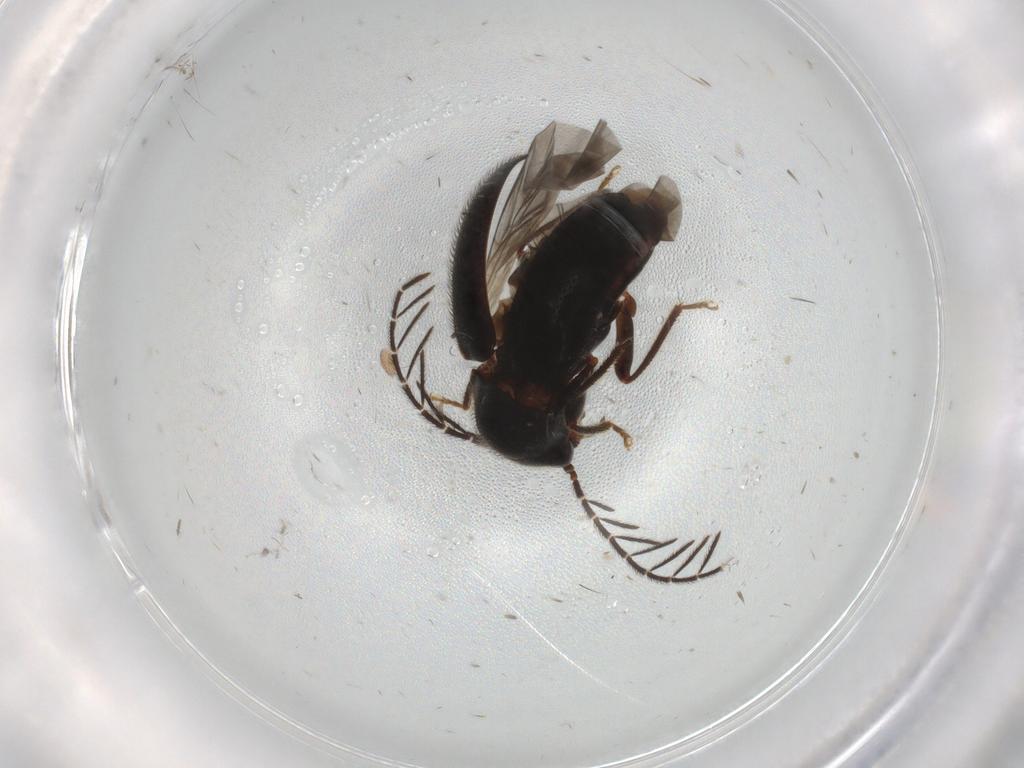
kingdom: Animalia
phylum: Arthropoda
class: Insecta
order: Coleoptera
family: Ptilodactylidae
